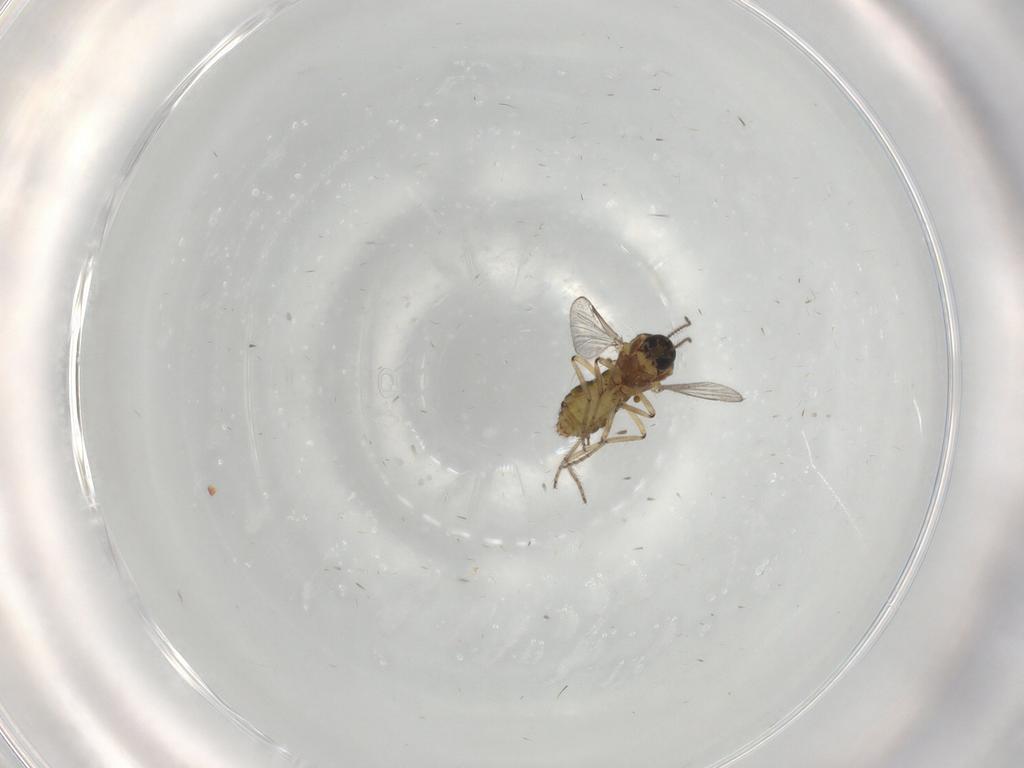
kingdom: Animalia
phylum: Arthropoda
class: Insecta
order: Diptera
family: Ceratopogonidae
